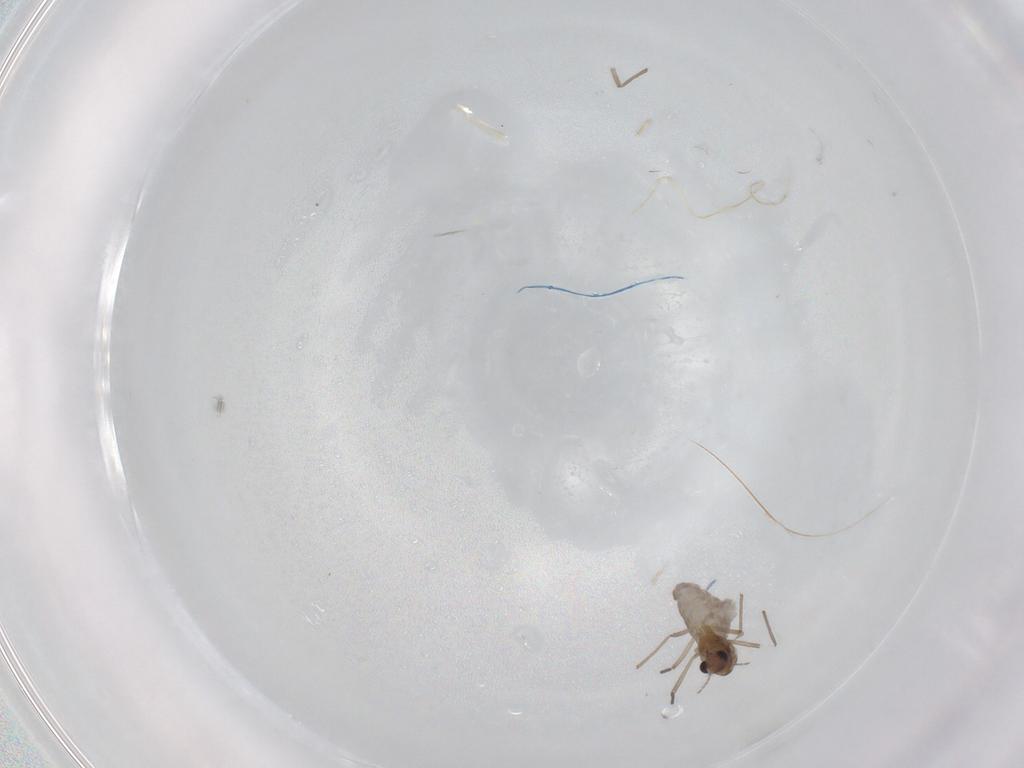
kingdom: Animalia
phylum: Arthropoda
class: Insecta
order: Diptera
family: Chironomidae
